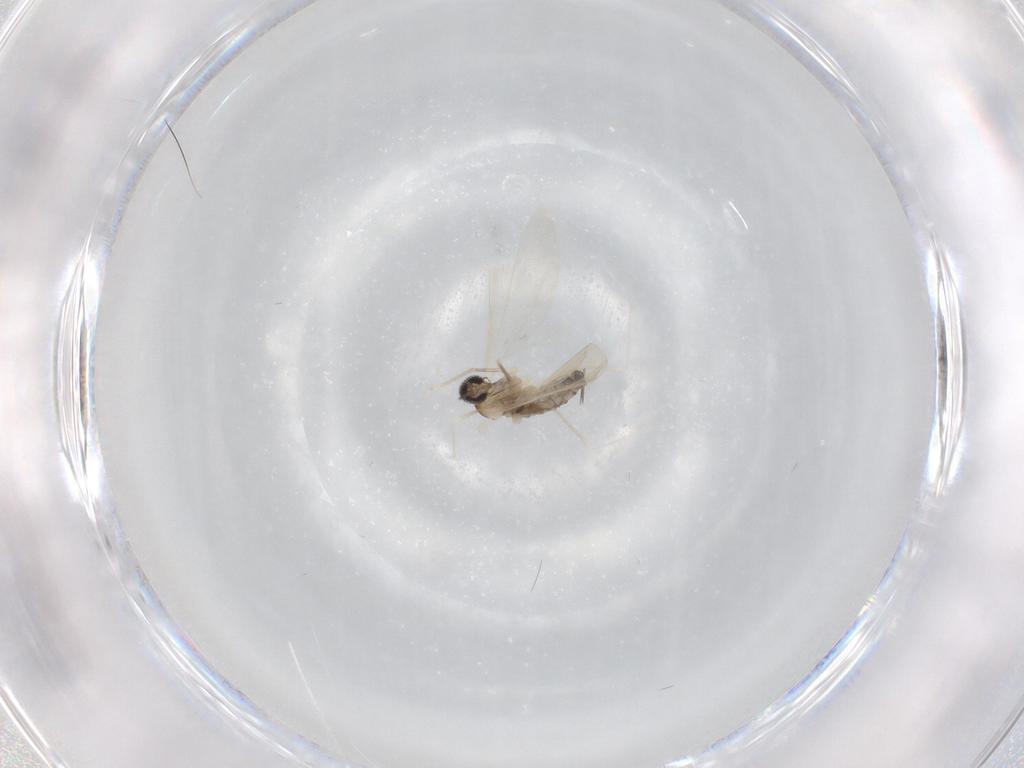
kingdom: Animalia
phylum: Arthropoda
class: Insecta
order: Diptera
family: Cecidomyiidae
